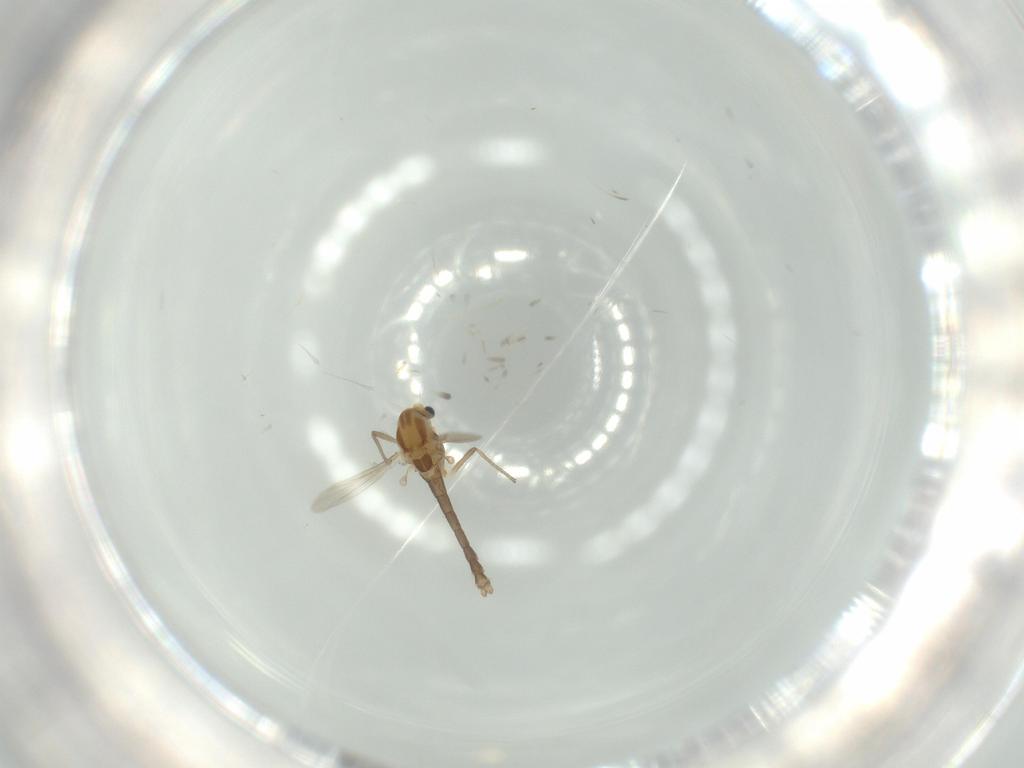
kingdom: Animalia
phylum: Arthropoda
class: Insecta
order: Diptera
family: Chironomidae
